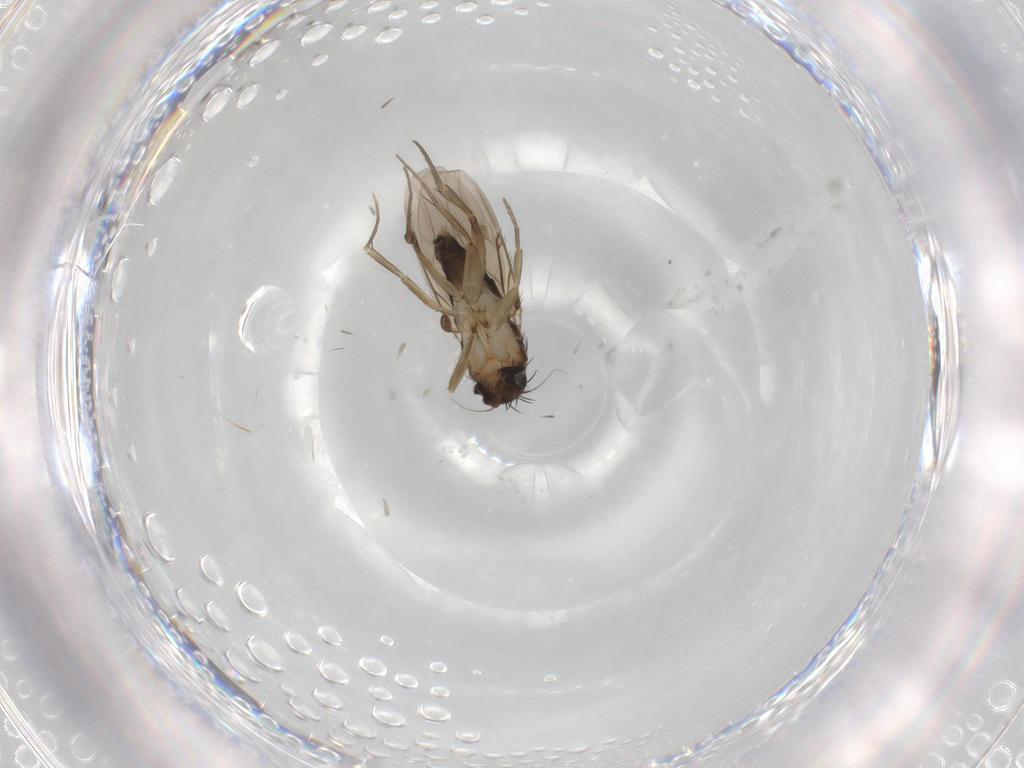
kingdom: Animalia
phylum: Arthropoda
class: Insecta
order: Diptera
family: Phoridae
